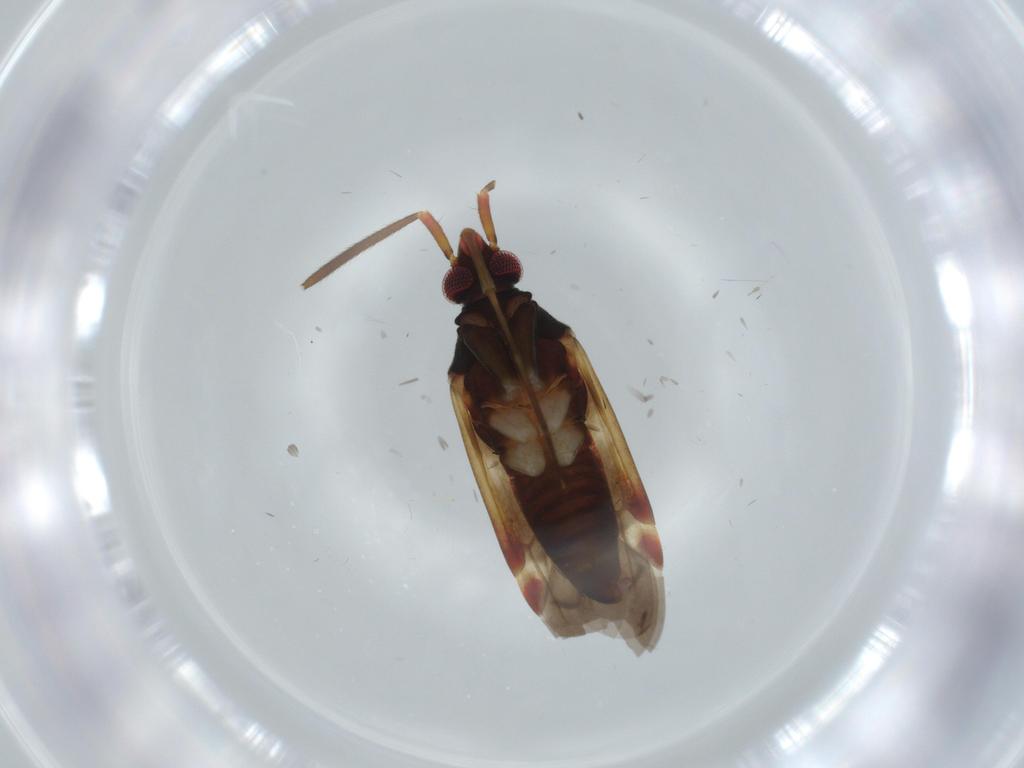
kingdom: Animalia
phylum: Arthropoda
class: Insecta
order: Hemiptera
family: Miridae
